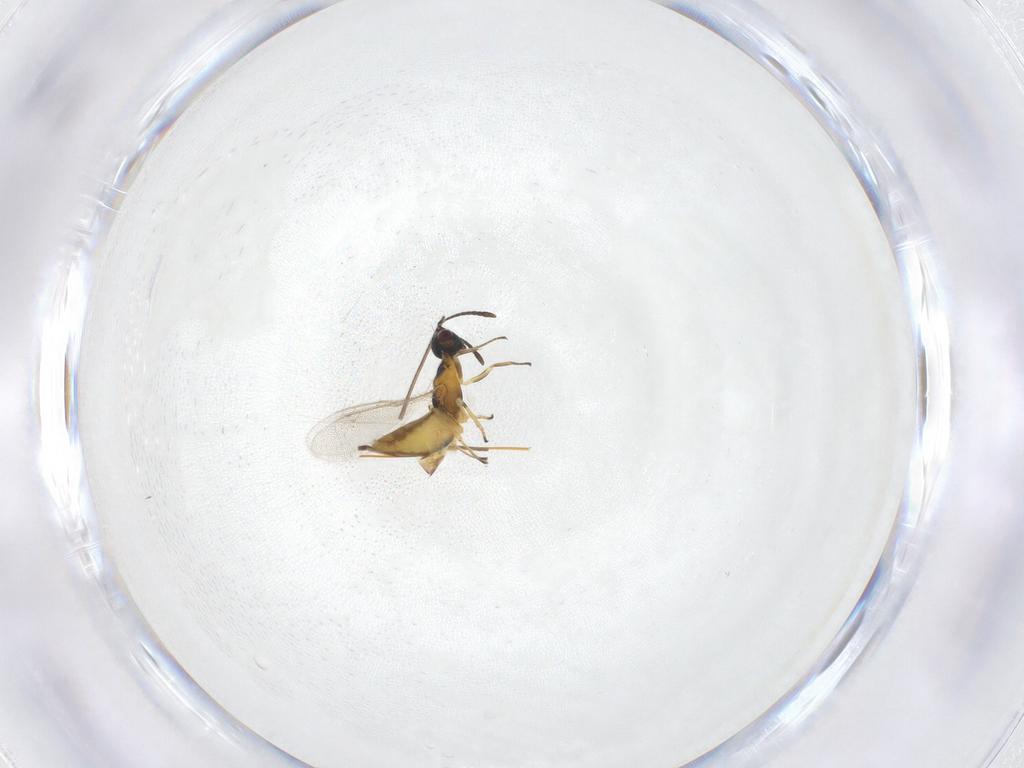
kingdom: Animalia
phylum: Arthropoda
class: Insecta
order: Hymenoptera
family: Eulophidae
